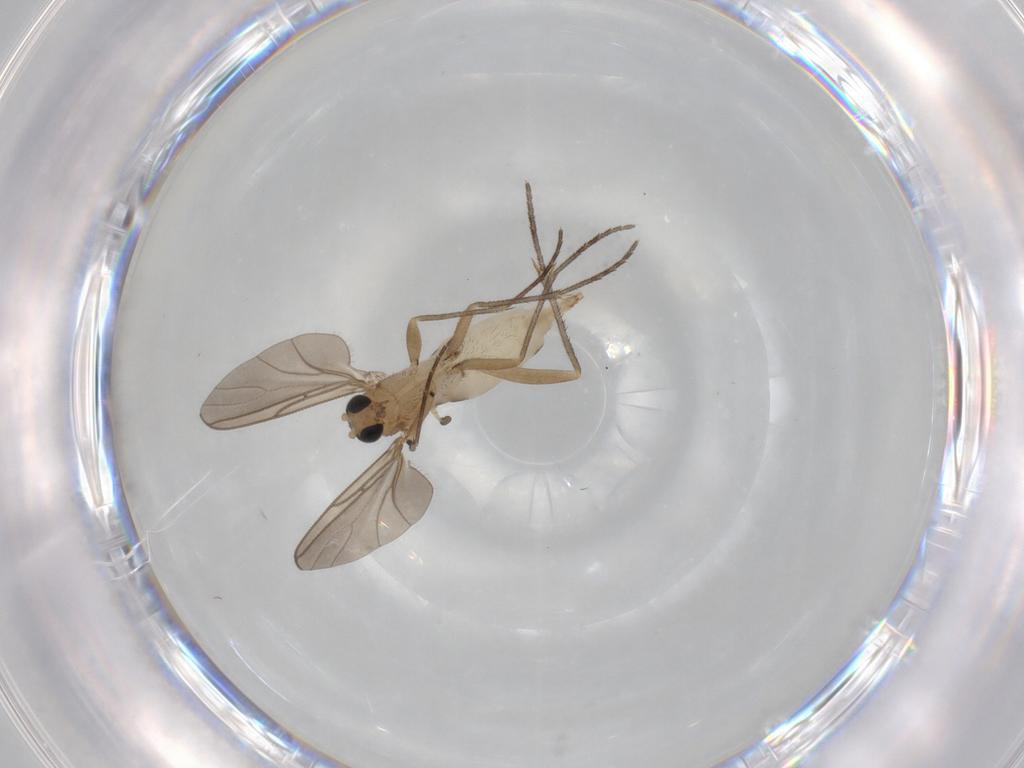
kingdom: Animalia
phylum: Arthropoda
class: Insecta
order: Diptera
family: Sciaridae
